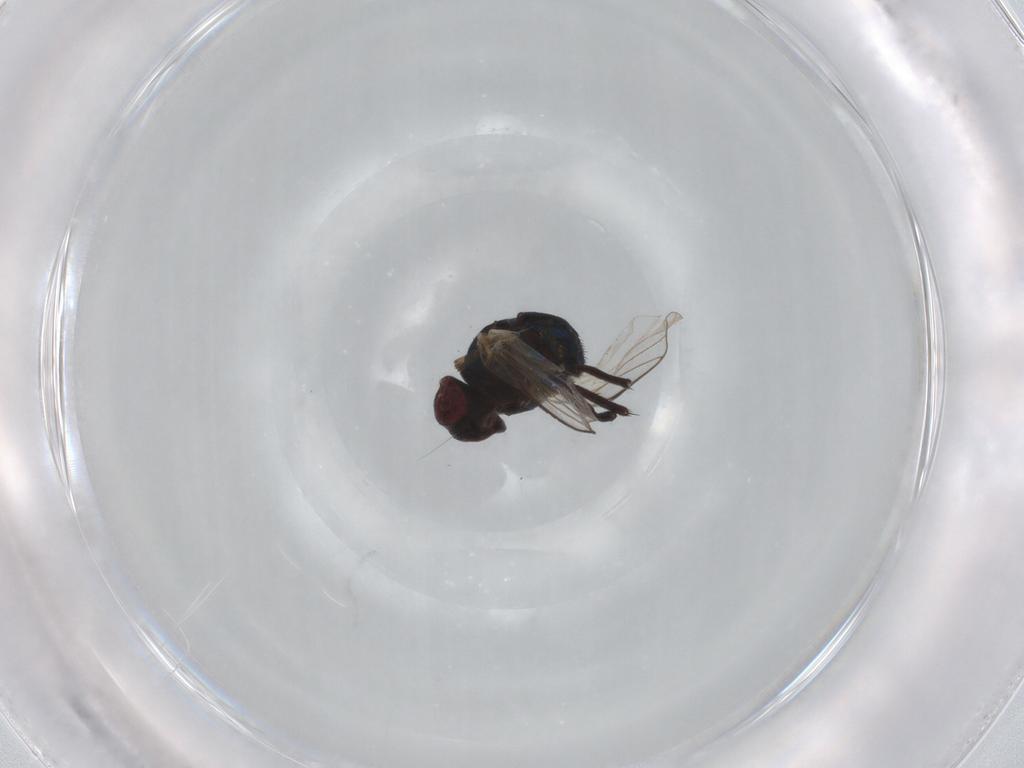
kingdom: Animalia
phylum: Arthropoda
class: Insecta
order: Diptera
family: Agromyzidae
